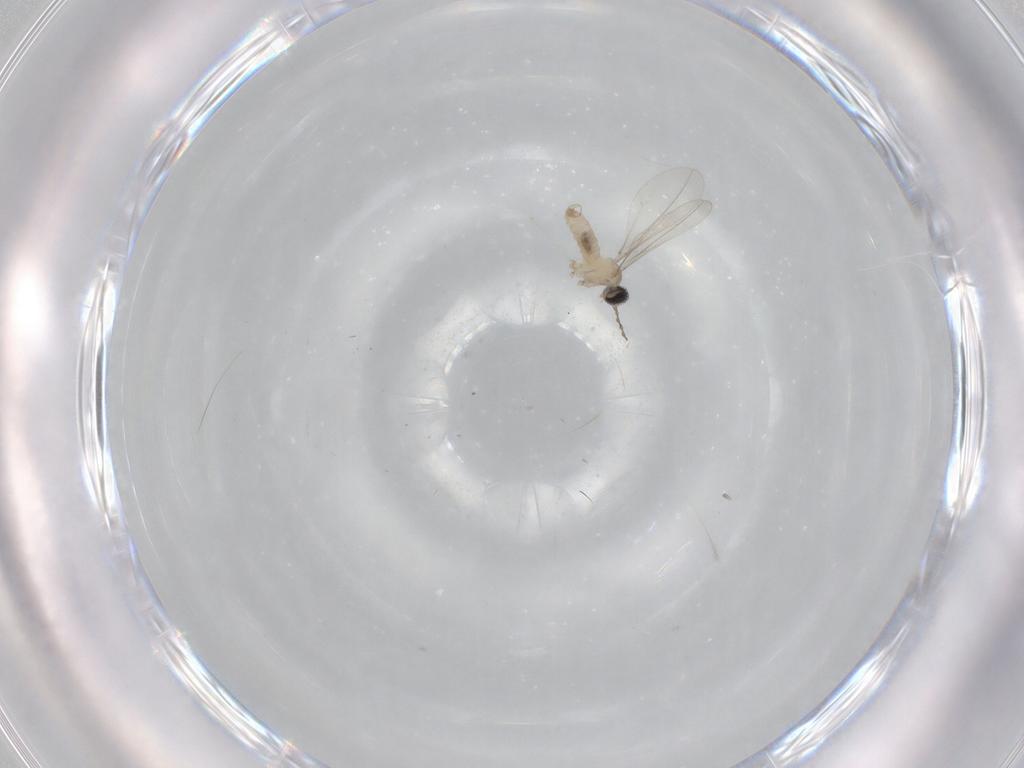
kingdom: Animalia
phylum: Arthropoda
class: Insecta
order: Diptera
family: Cecidomyiidae
